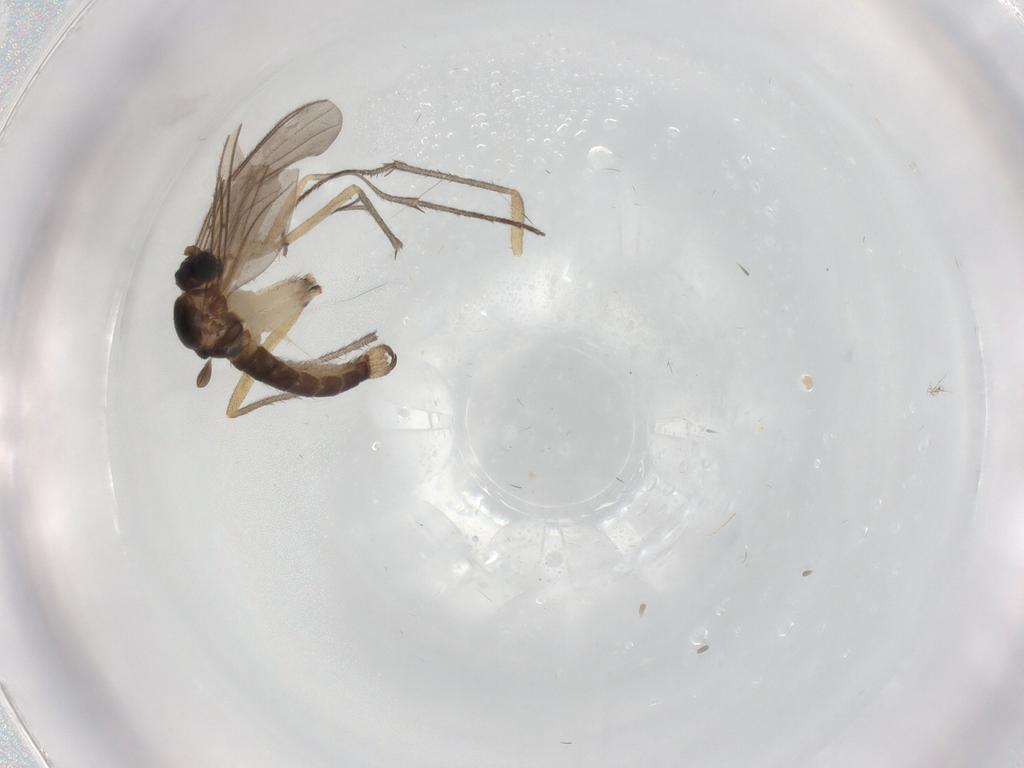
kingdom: Animalia
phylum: Arthropoda
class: Insecta
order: Diptera
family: Sciaridae
